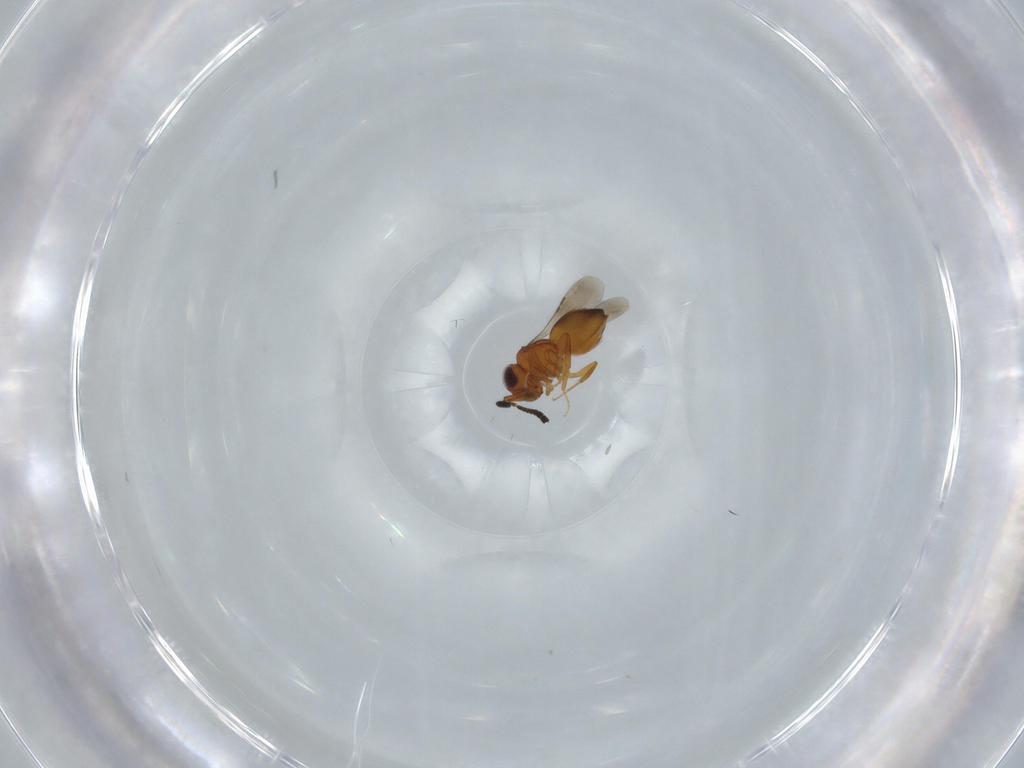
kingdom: Animalia
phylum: Arthropoda
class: Insecta
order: Hymenoptera
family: Ceraphronidae
